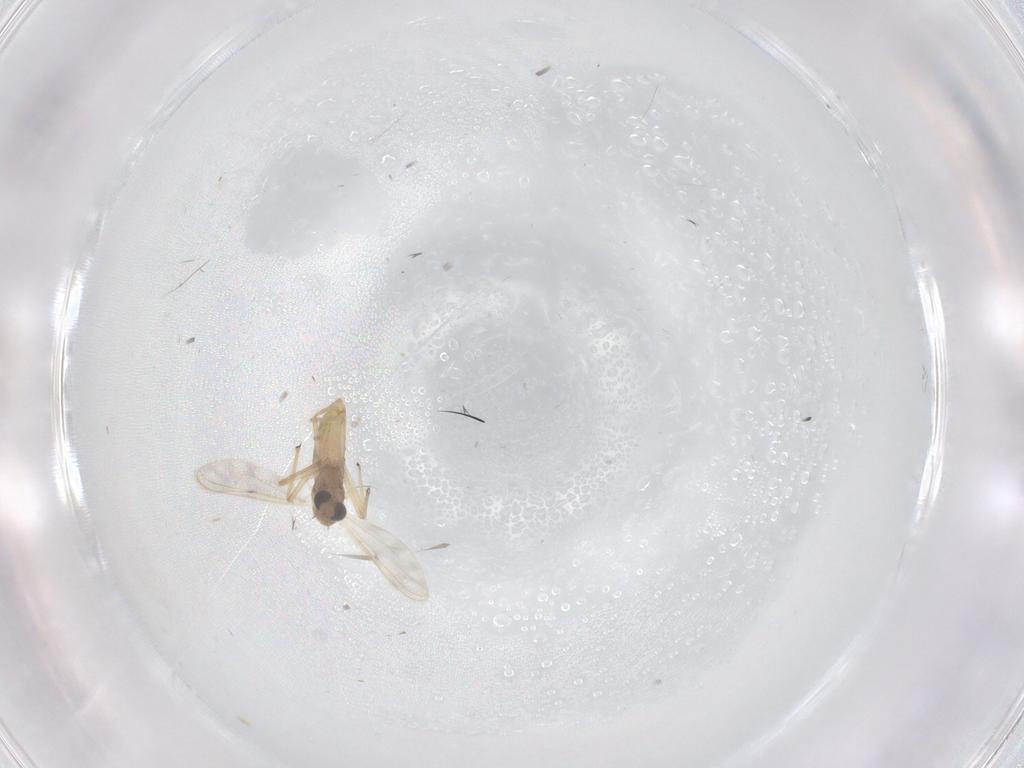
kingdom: Animalia
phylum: Arthropoda
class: Insecta
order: Diptera
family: Chironomidae
